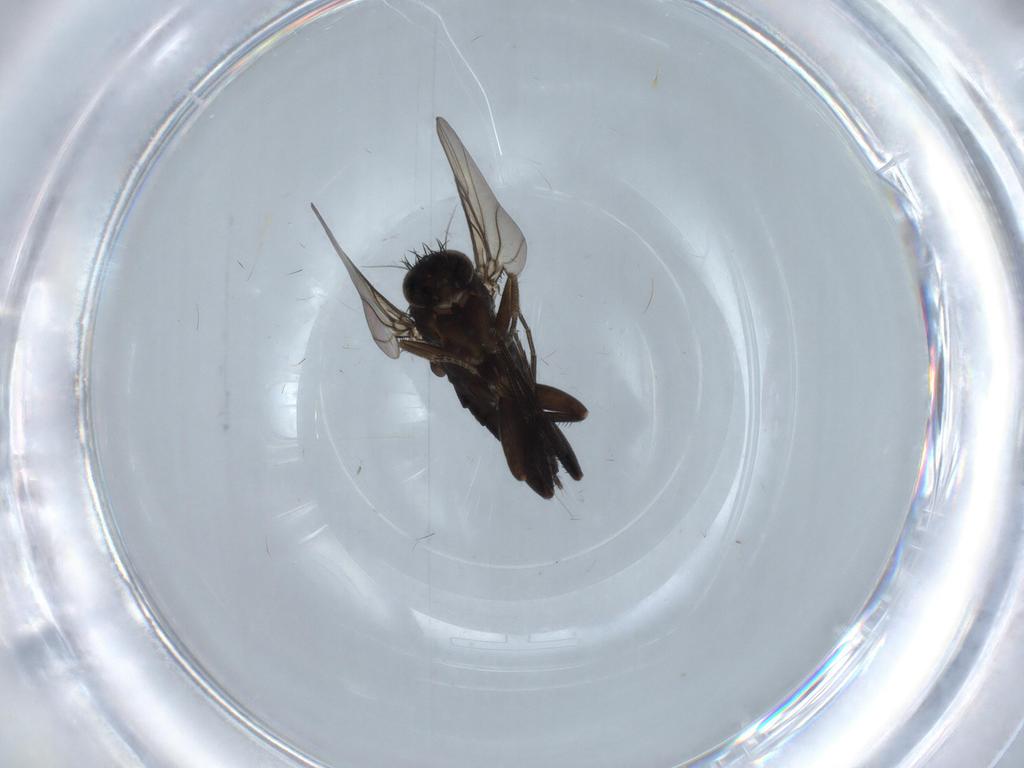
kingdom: Animalia
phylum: Arthropoda
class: Insecta
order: Diptera
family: Phoridae
